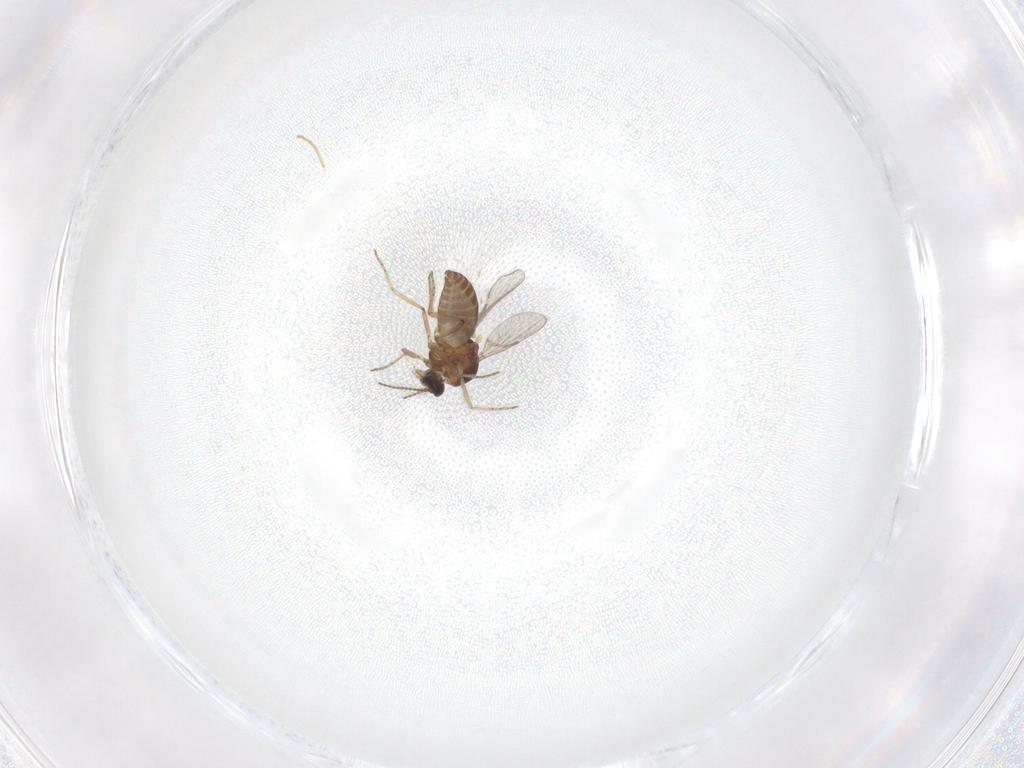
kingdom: Animalia
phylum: Arthropoda
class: Insecta
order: Diptera
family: Ceratopogonidae
